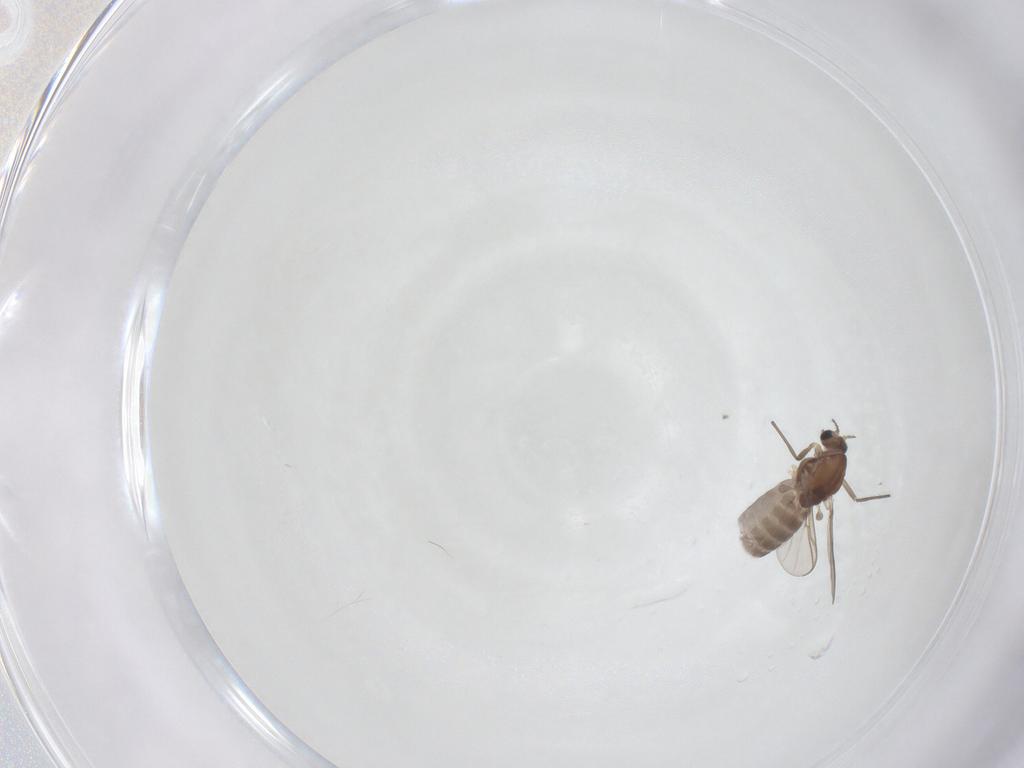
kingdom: Animalia
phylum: Arthropoda
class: Insecta
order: Diptera
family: Chironomidae
